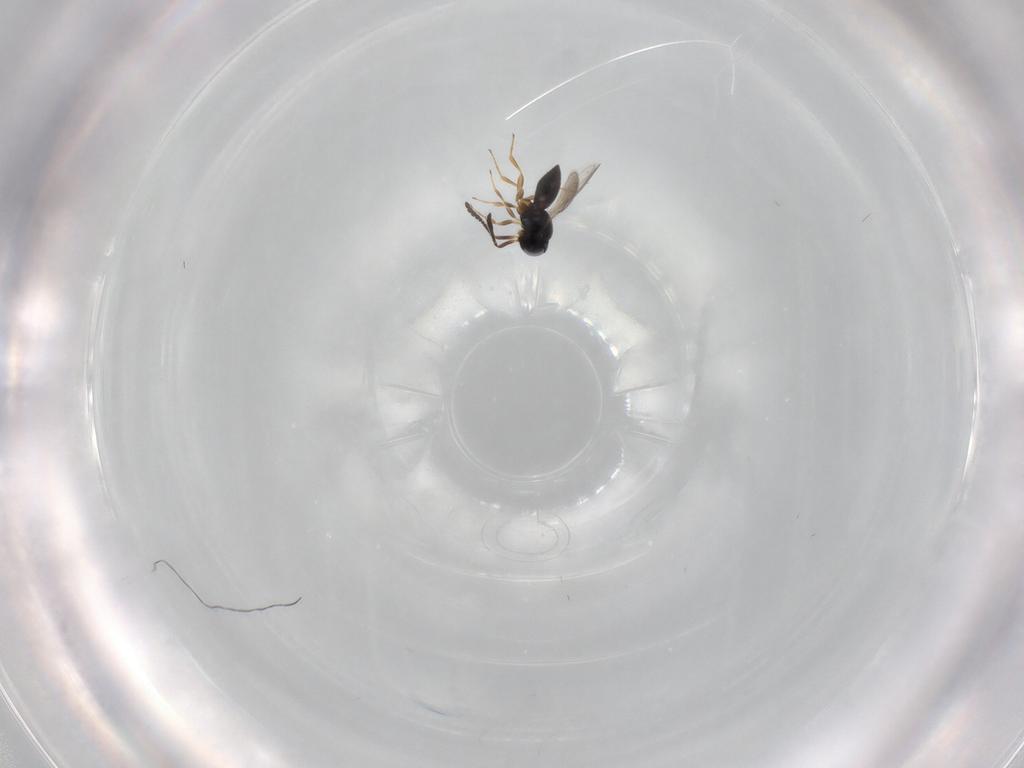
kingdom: Animalia
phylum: Arthropoda
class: Insecta
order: Hymenoptera
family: Scelionidae
